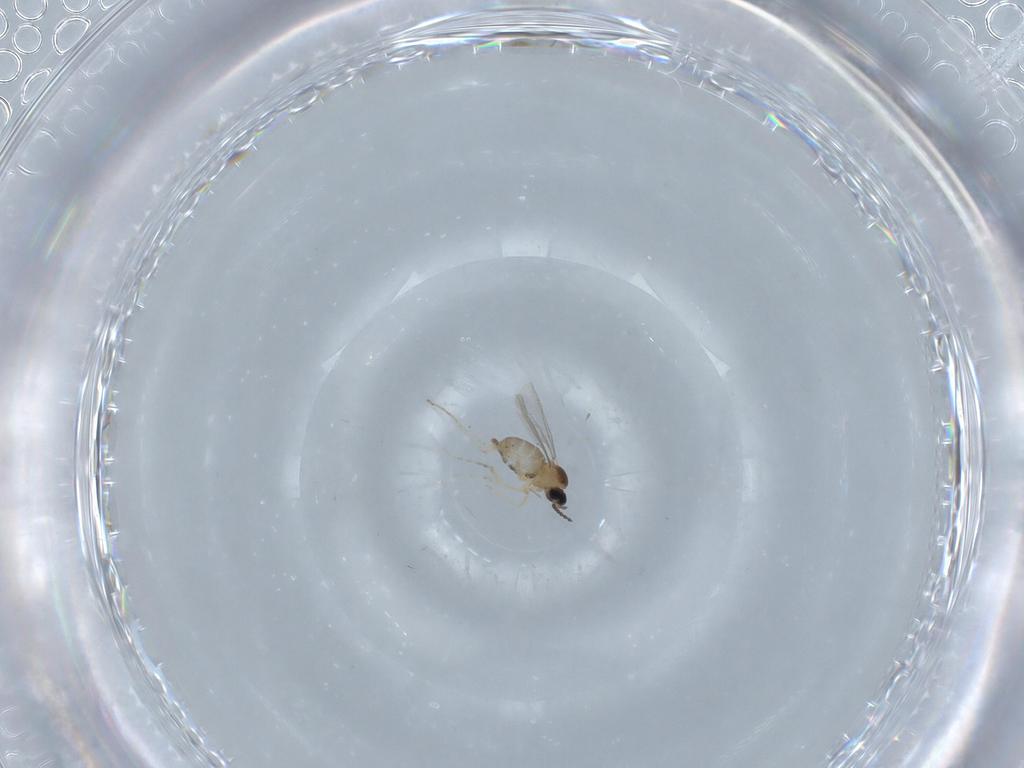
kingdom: Animalia
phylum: Arthropoda
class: Insecta
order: Diptera
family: Cecidomyiidae
